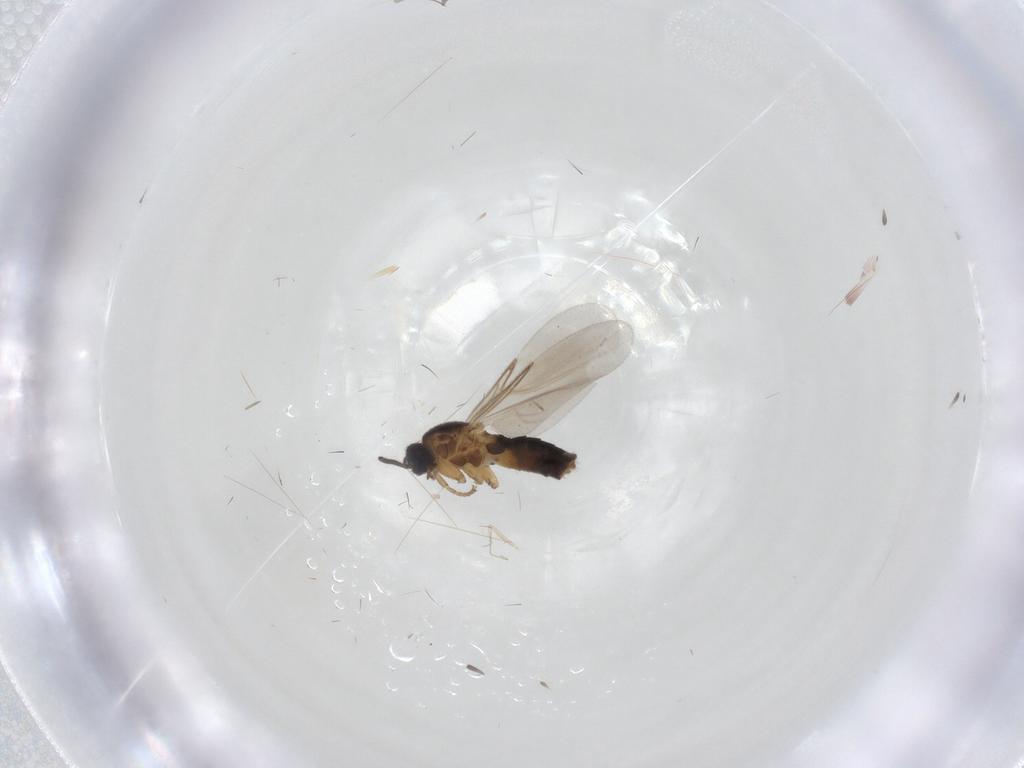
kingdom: Animalia
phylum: Arthropoda
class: Insecta
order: Diptera
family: Scatopsidae
